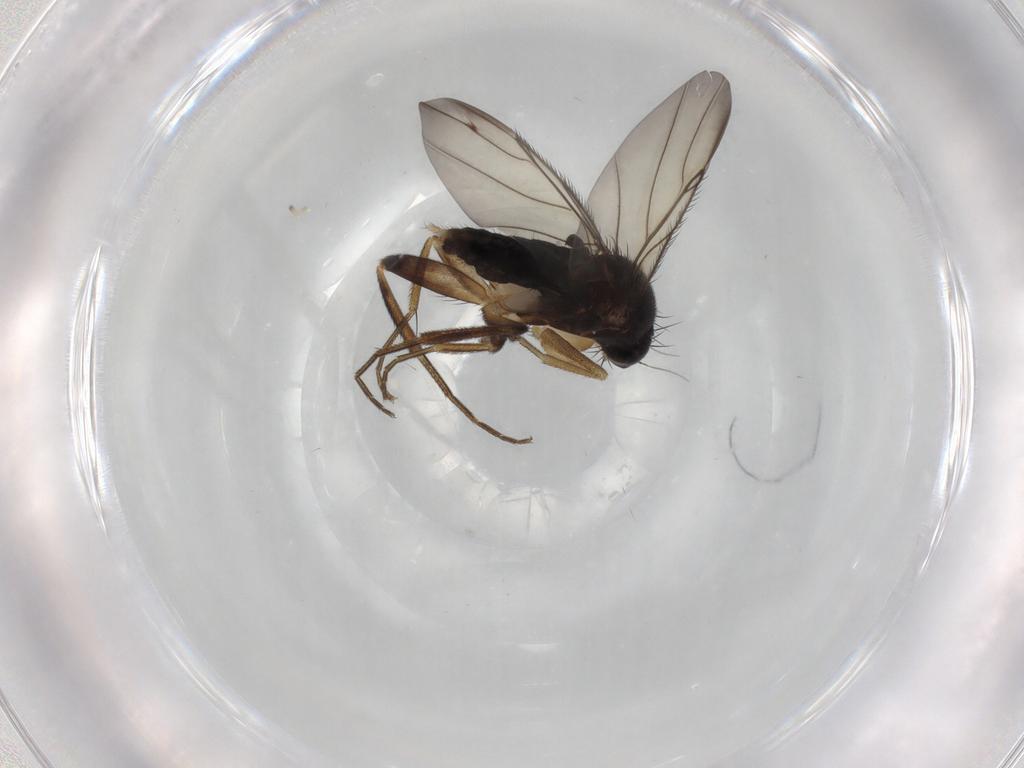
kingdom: Animalia
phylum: Arthropoda
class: Insecta
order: Diptera
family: Phoridae
